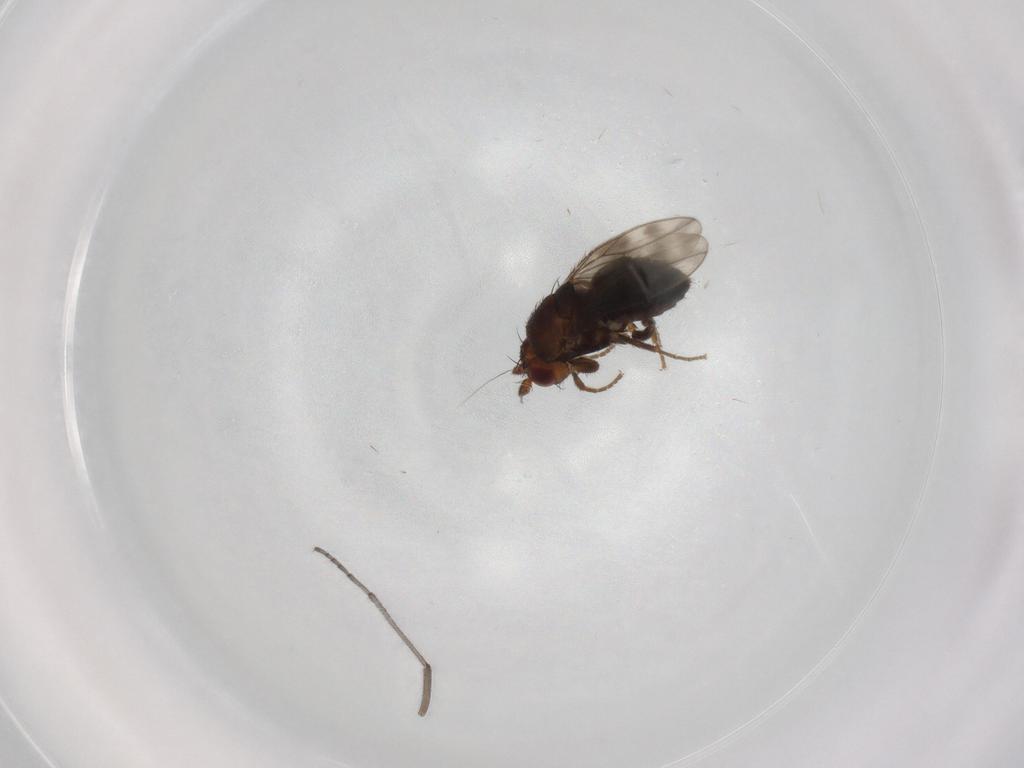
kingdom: Animalia
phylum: Arthropoda
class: Insecta
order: Diptera
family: Sphaeroceridae
